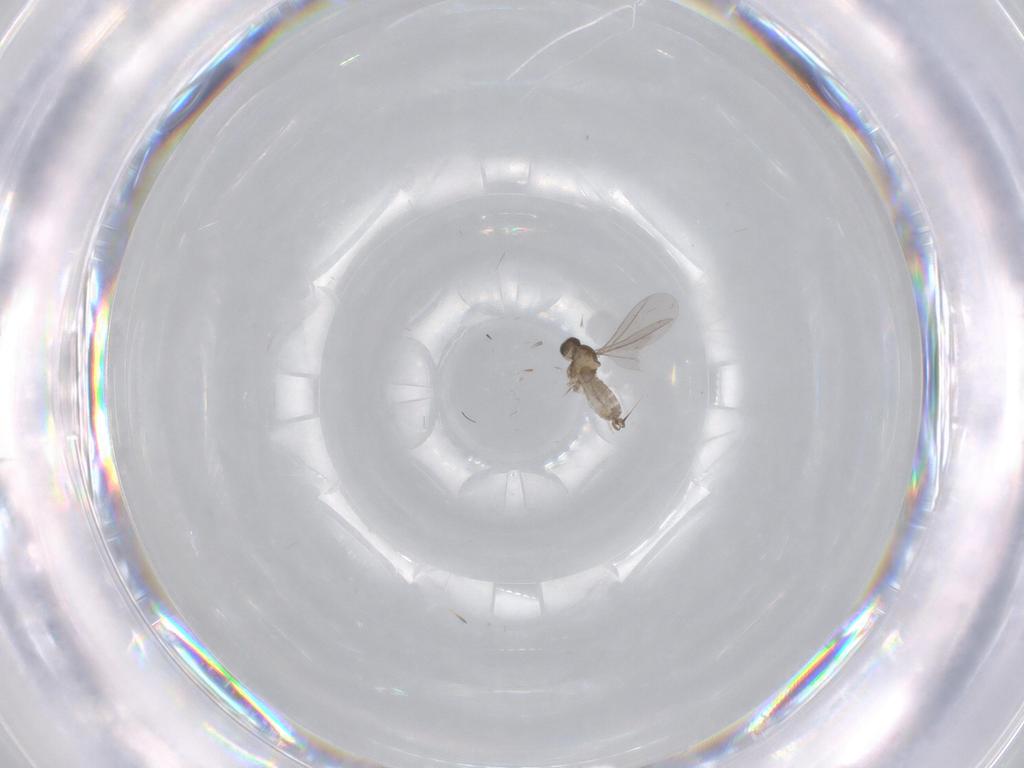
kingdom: Animalia
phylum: Arthropoda
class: Insecta
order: Diptera
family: Cecidomyiidae
